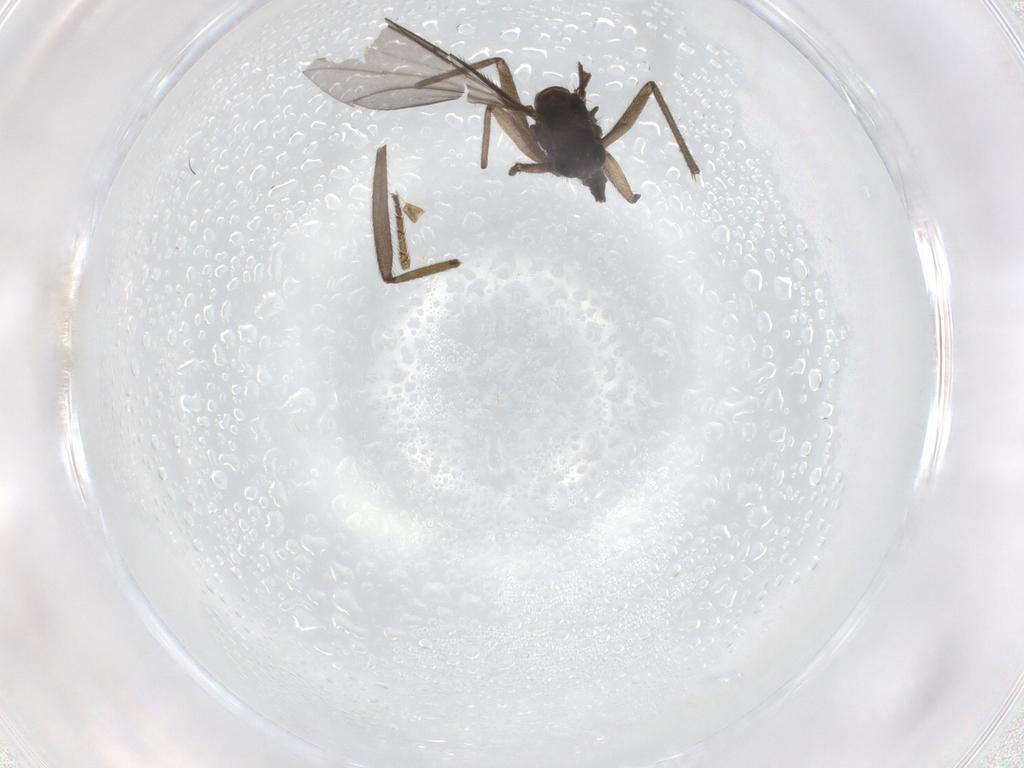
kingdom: Animalia
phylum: Arthropoda
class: Insecta
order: Diptera
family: Sciaridae
